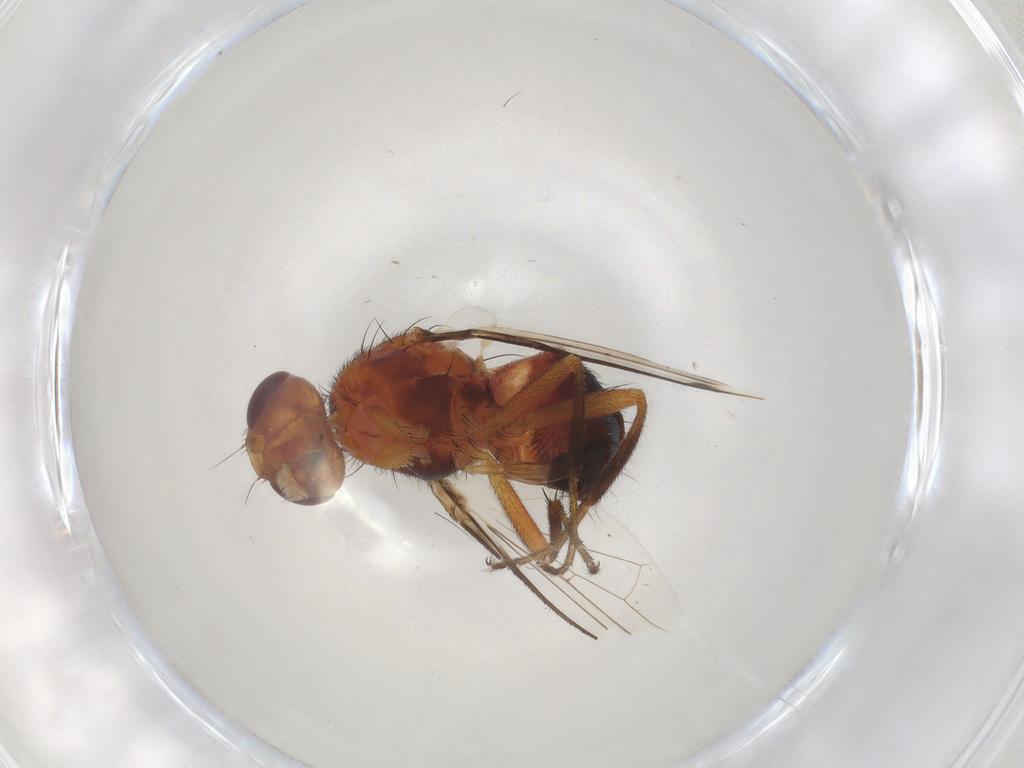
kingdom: Animalia
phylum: Arthropoda
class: Insecta
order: Diptera
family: Richardiidae
